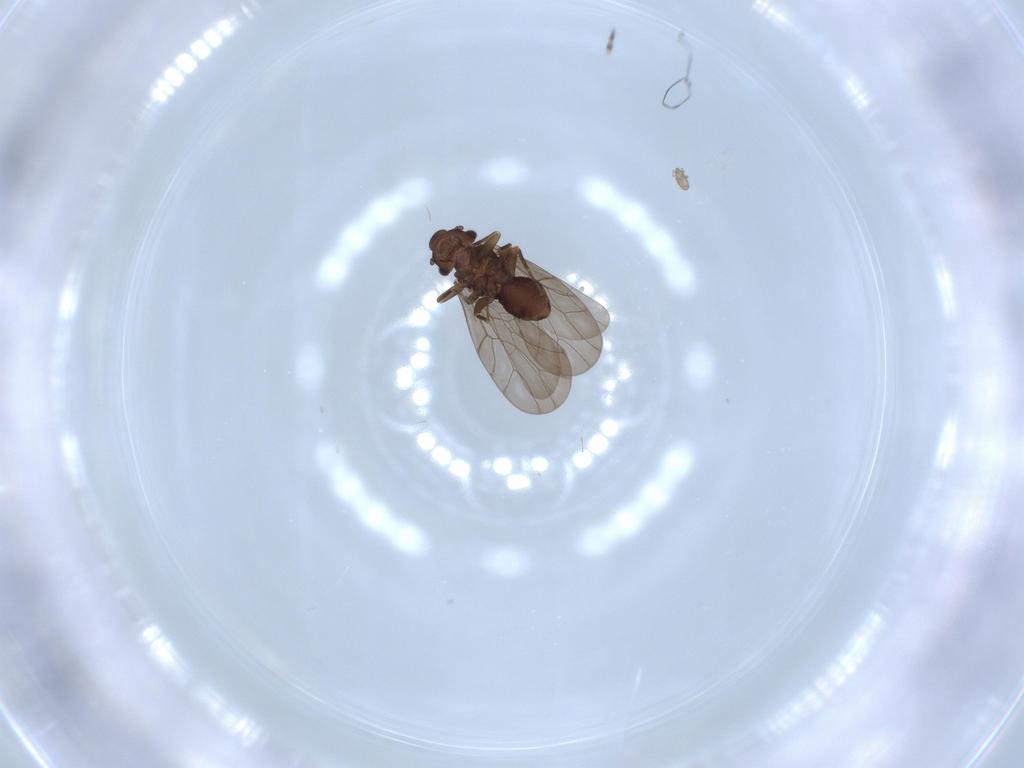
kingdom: Animalia
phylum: Arthropoda
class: Insecta
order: Psocodea
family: Lepidopsocidae
